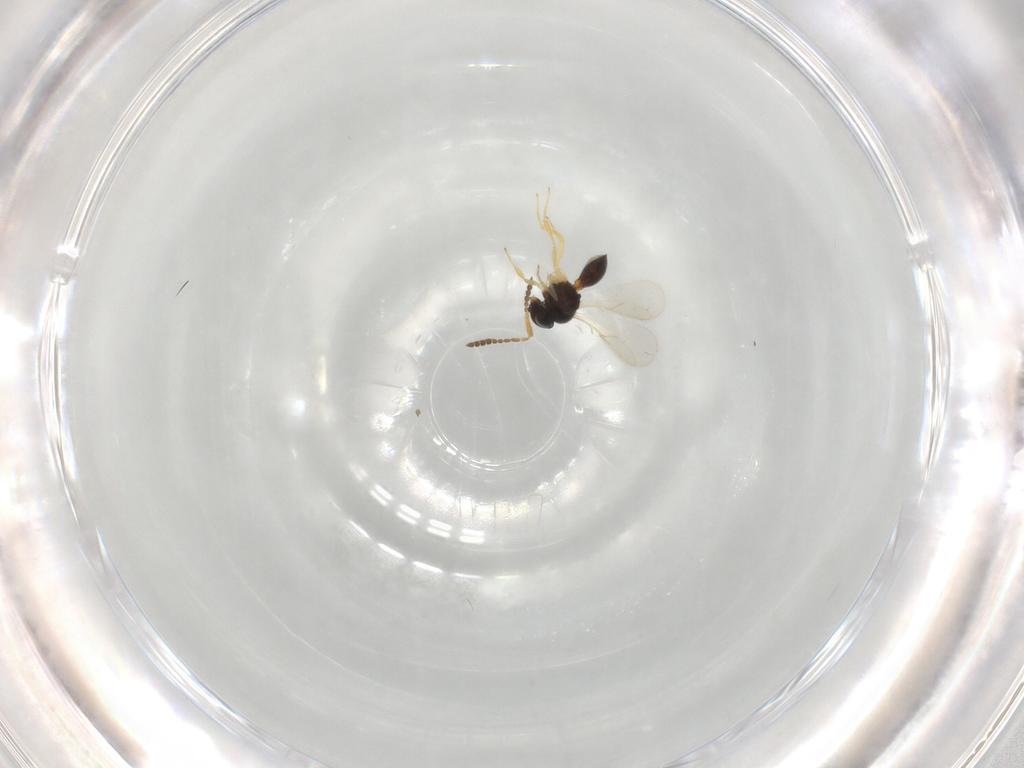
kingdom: Animalia
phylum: Arthropoda
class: Insecta
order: Hymenoptera
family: Scelionidae
